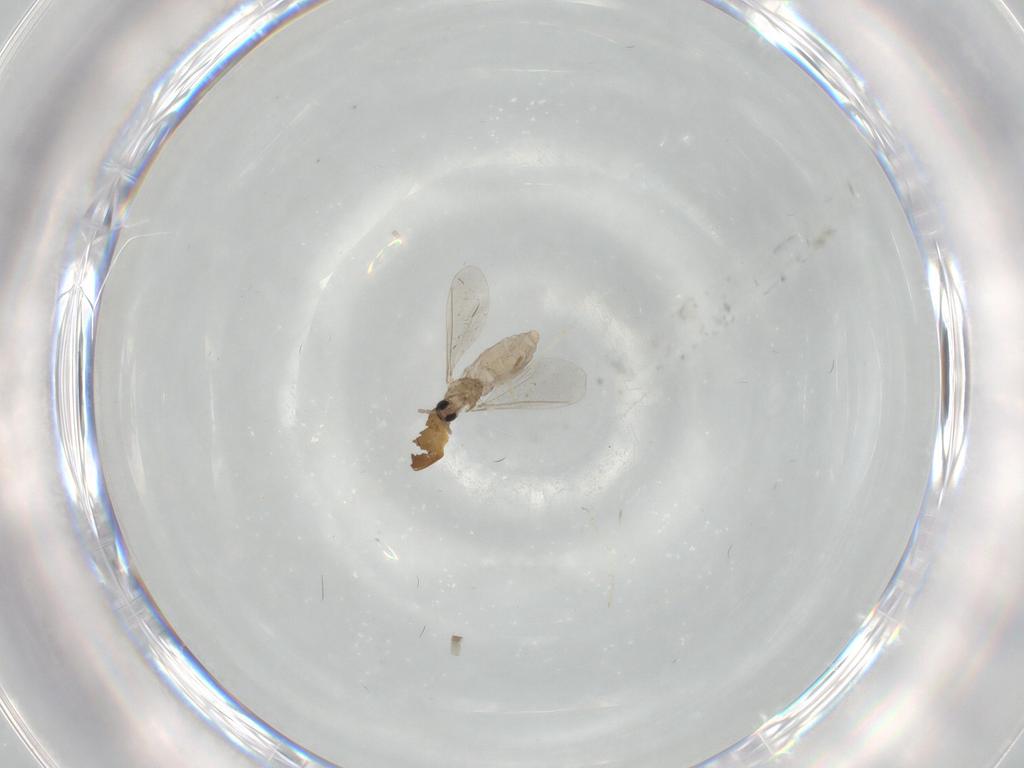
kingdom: Animalia
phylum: Arthropoda
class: Insecta
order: Diptera
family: Cecidomyiidae
